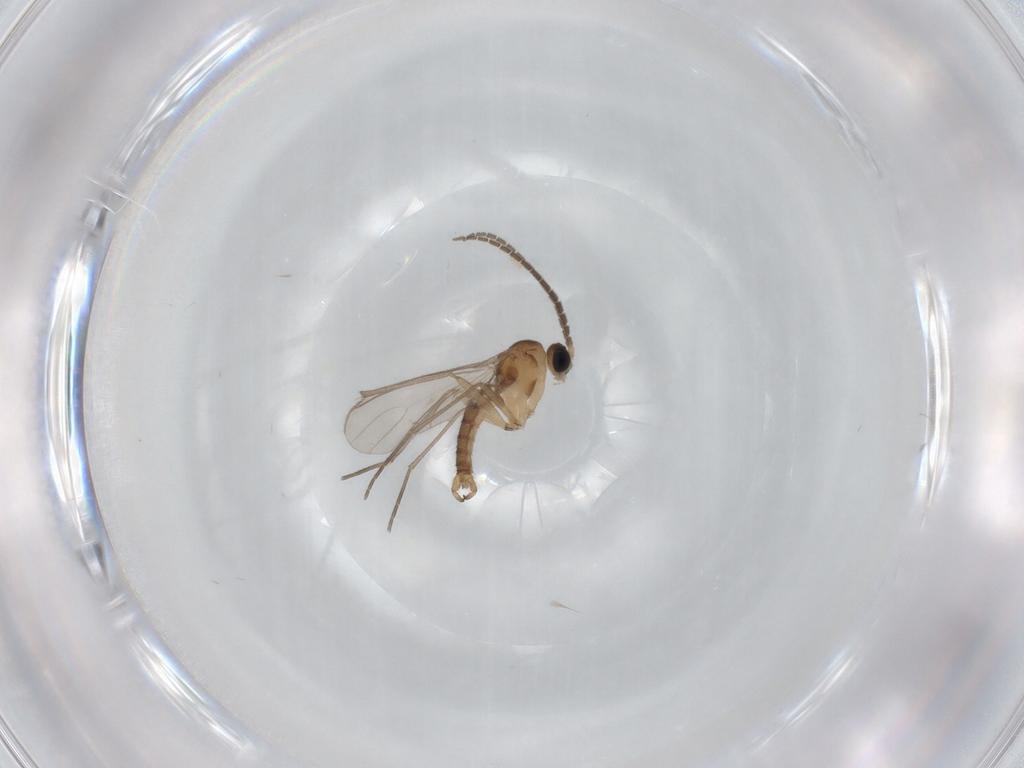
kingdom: Animalia
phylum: Arthropoda
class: Insecta
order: Diptera
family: Sciaridae
